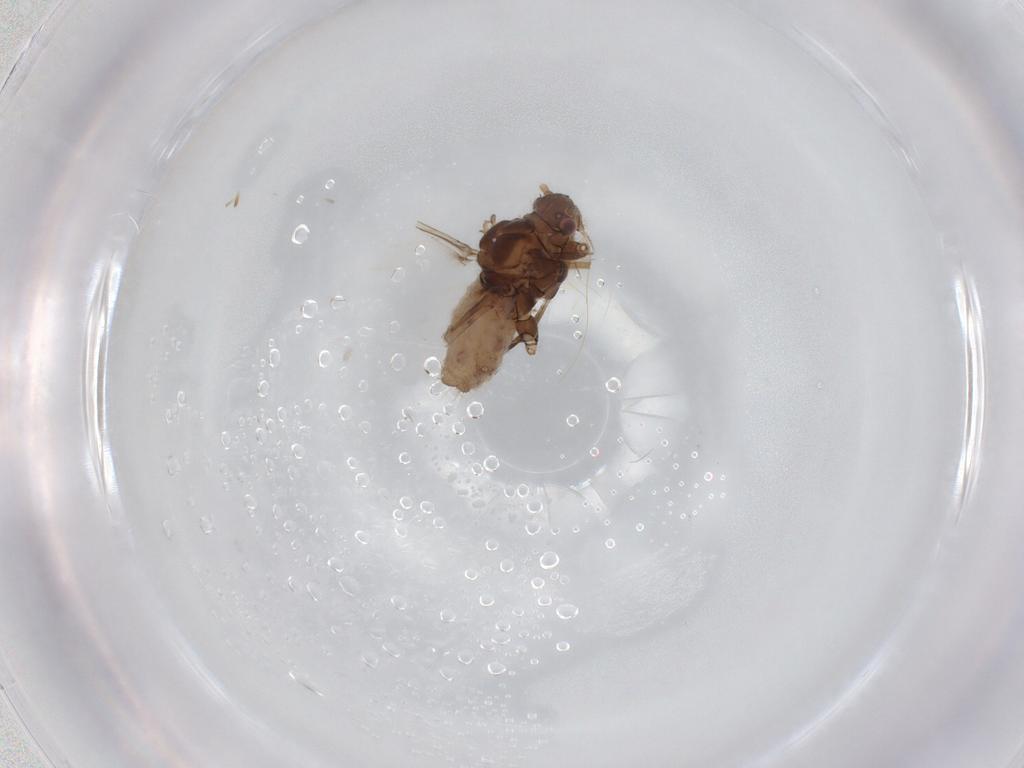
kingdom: Animalia
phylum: Arthropoda
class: Insecta
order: Hemiptera
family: Aphididae
